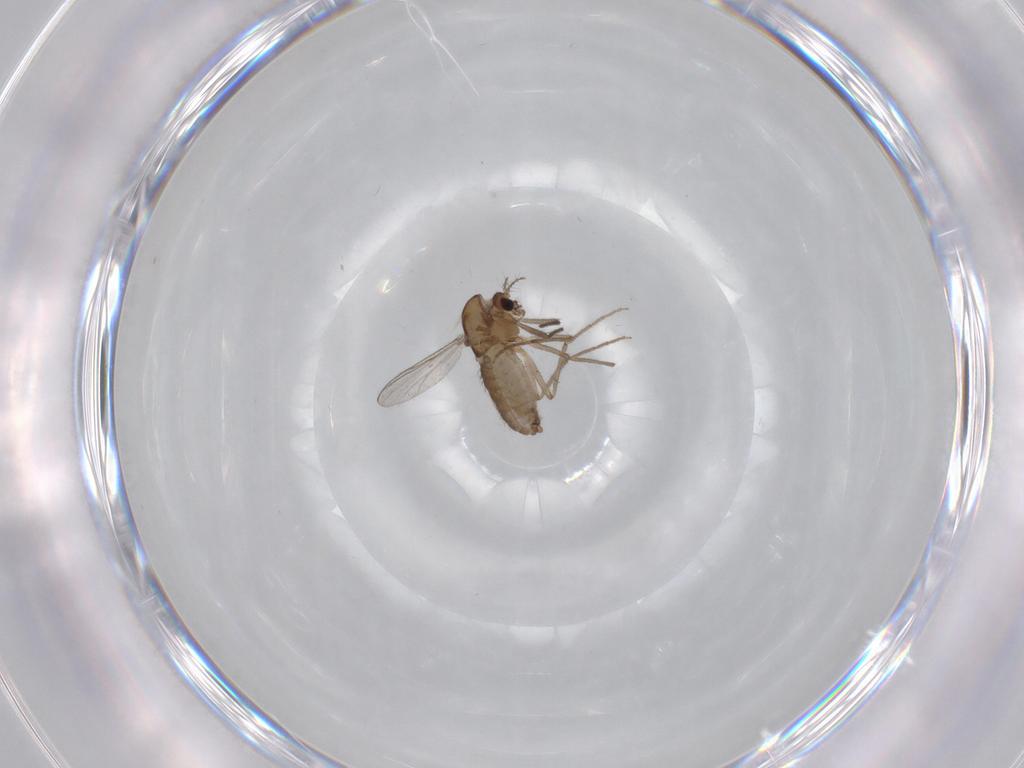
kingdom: Animalia
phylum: Arthropoda
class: Insecta
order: Diptera
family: Chironomidae
